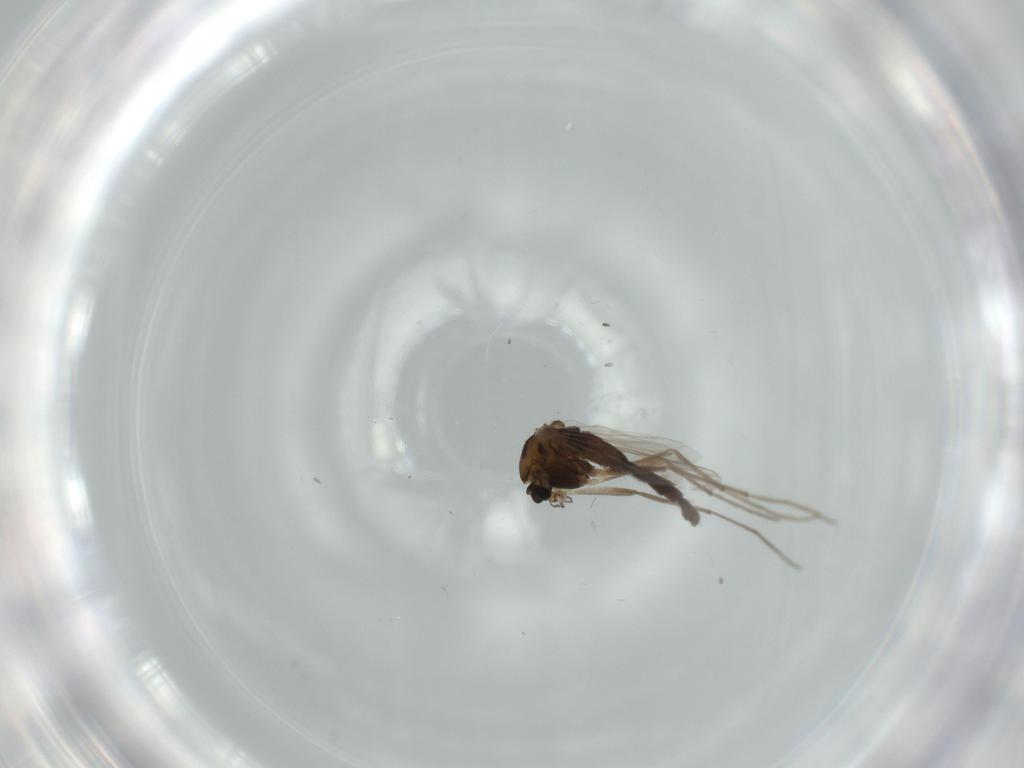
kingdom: Animalia
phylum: Arthropoda
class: Insecta
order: Diptera
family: Chironomidae
